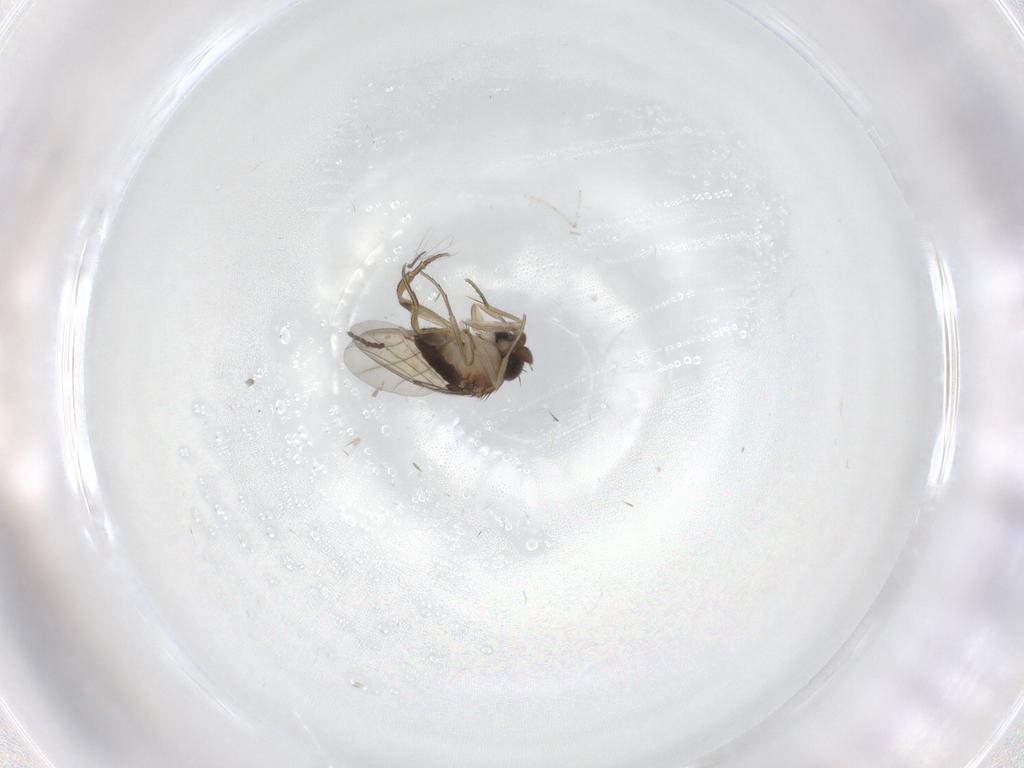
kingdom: Animalia
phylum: Arthropoda
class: Insecta
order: Diptera
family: Sciaridae
